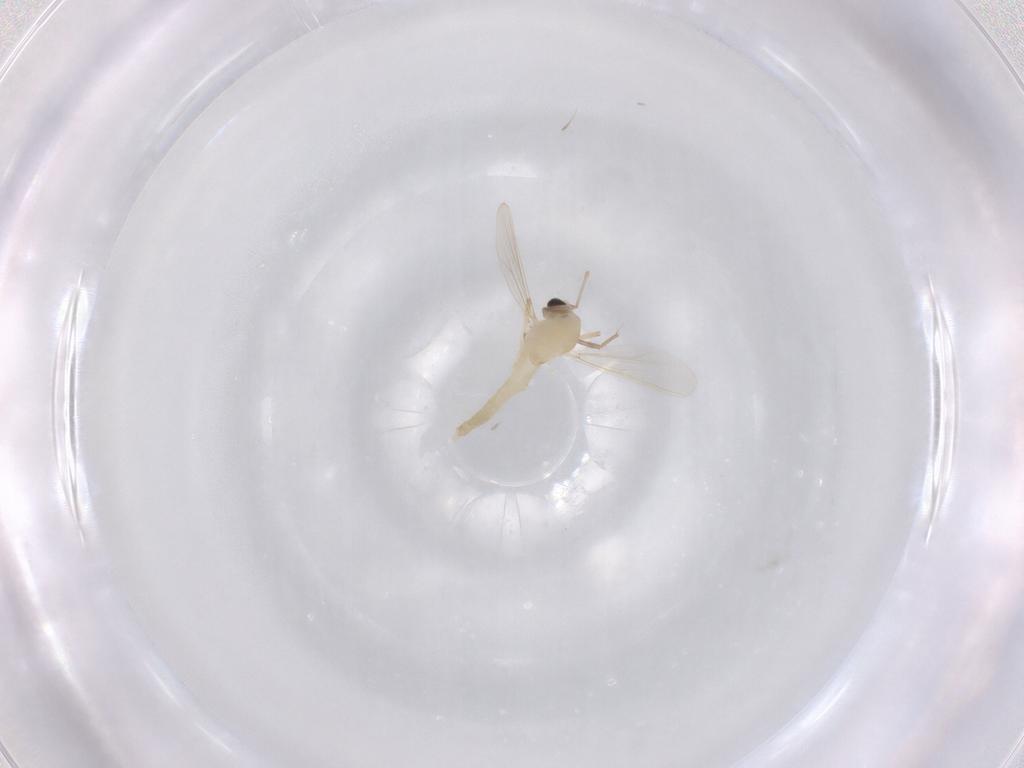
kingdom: Animalia
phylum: Arthropoda
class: Insecta
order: Diptera
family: Chironomidae
